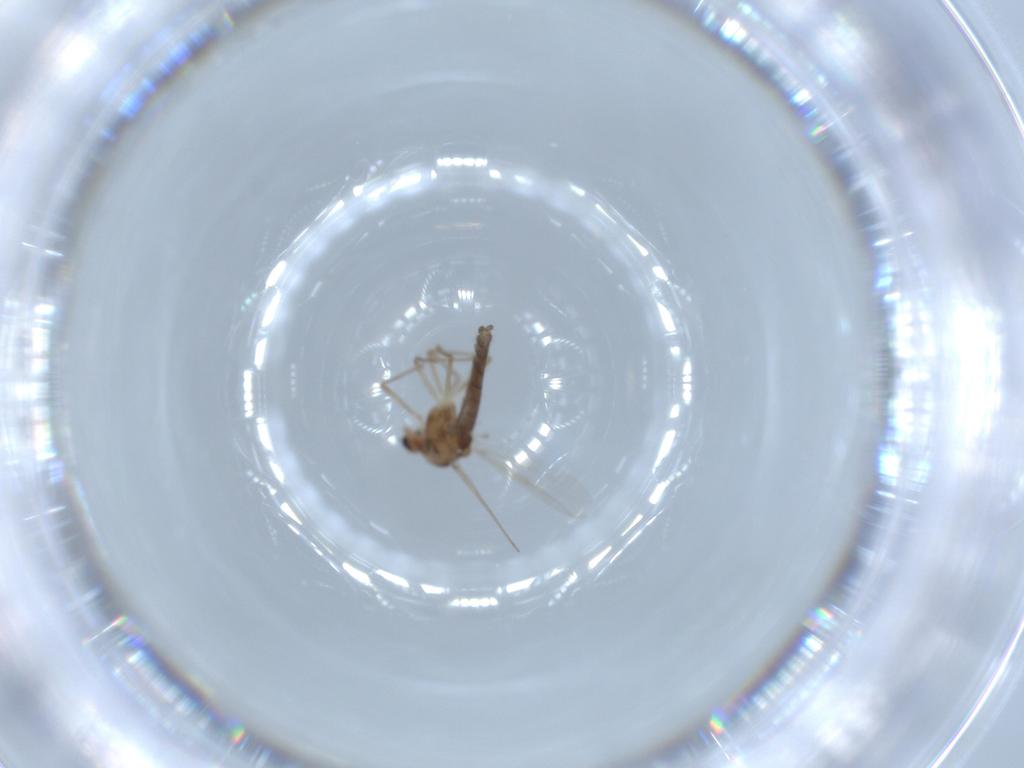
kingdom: Animalia
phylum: Arthropoda
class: Insecta
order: Diptera
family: Chironomidae
